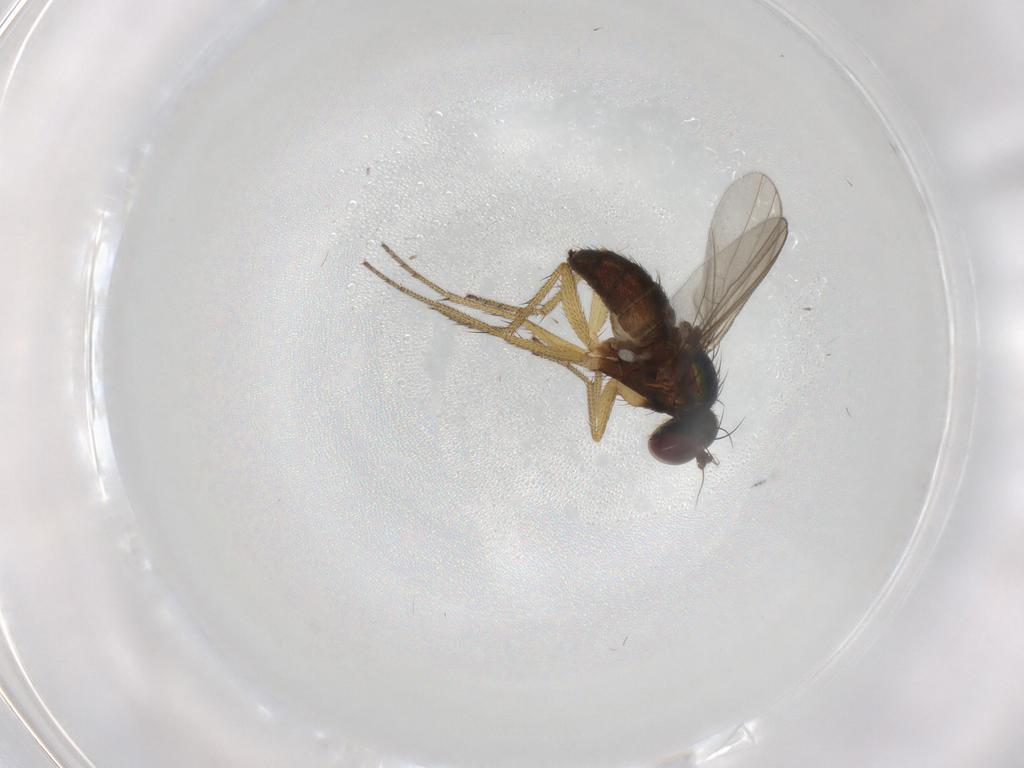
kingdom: Animalia
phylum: Arthropoda
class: Insecta
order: Diptera
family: Dolichopodidae
